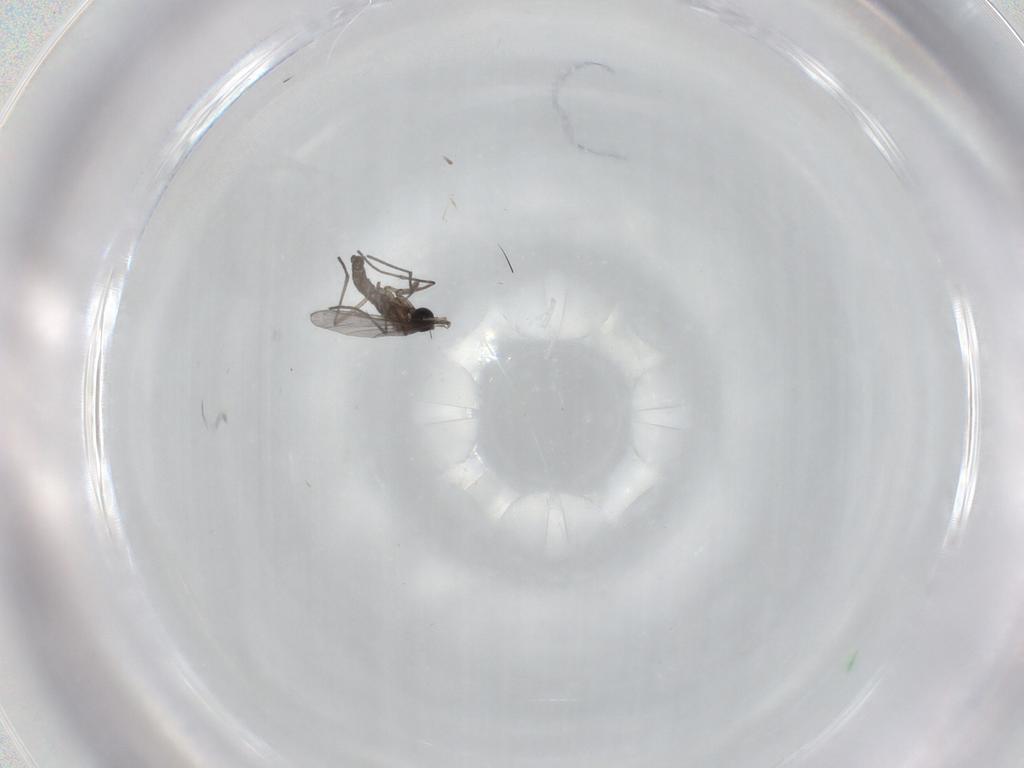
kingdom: Animalia
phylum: Arthropoda
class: Insecta
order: Diptera
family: Cecidomyiidae
